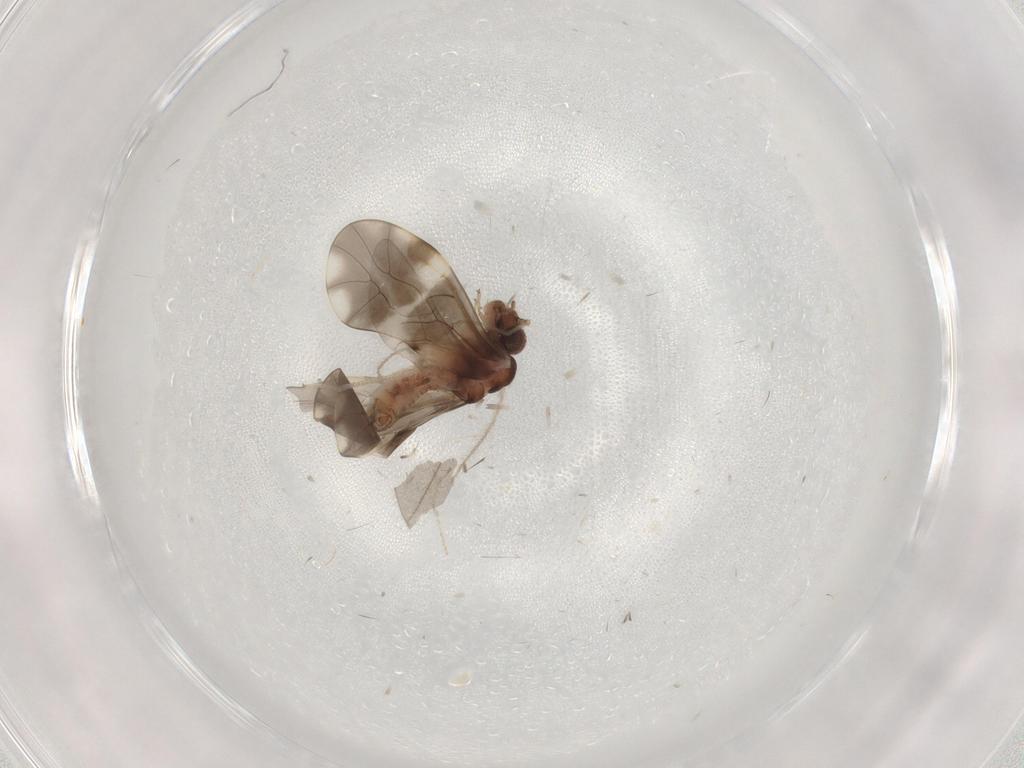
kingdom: Animalia
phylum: Arthropoda
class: Insecta
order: Psocodea
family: Peripsocidae
